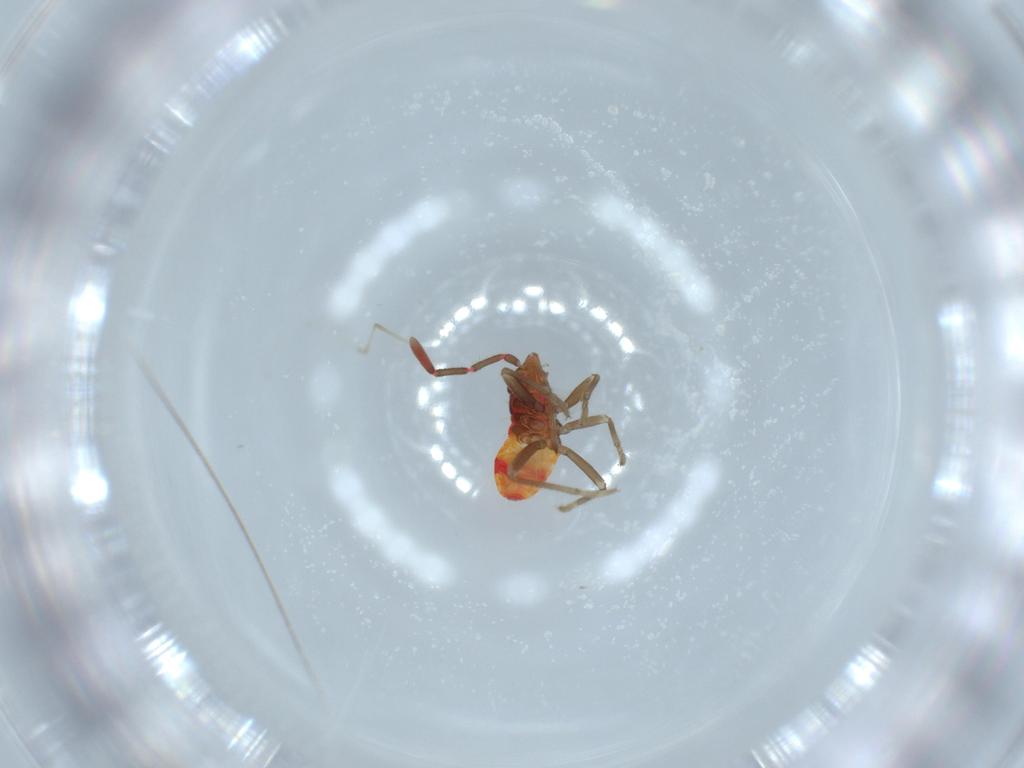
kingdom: Animalia
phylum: Arthropoda
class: Insecta
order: Hemiptera
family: Rhyparochromidae
